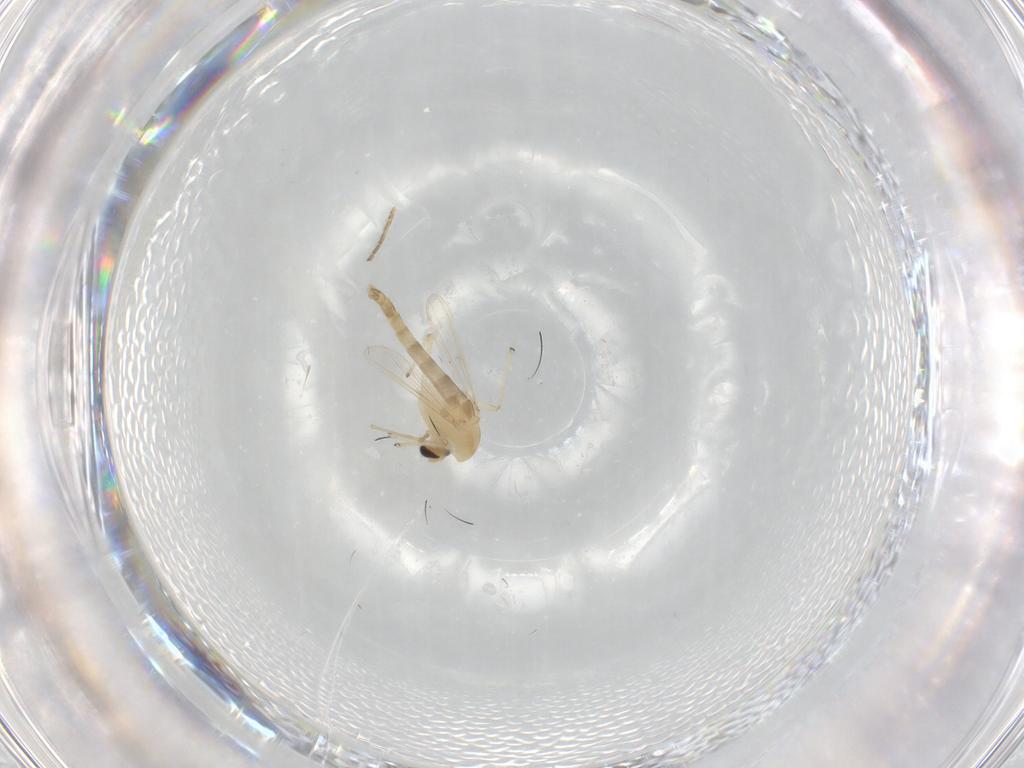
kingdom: Animalia
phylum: Arthropoda
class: Insecta
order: Diptera
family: Chironomidae
